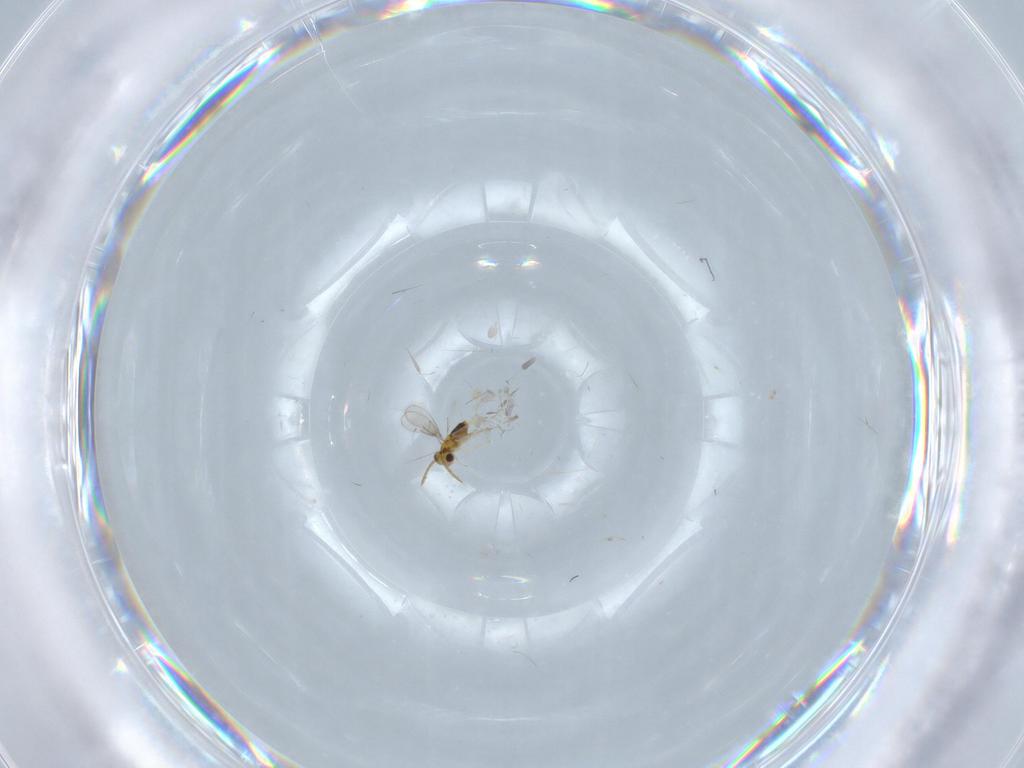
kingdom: Animalia
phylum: Arthropoda
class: Insecta
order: Hymenoptera
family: Aphelinidae
